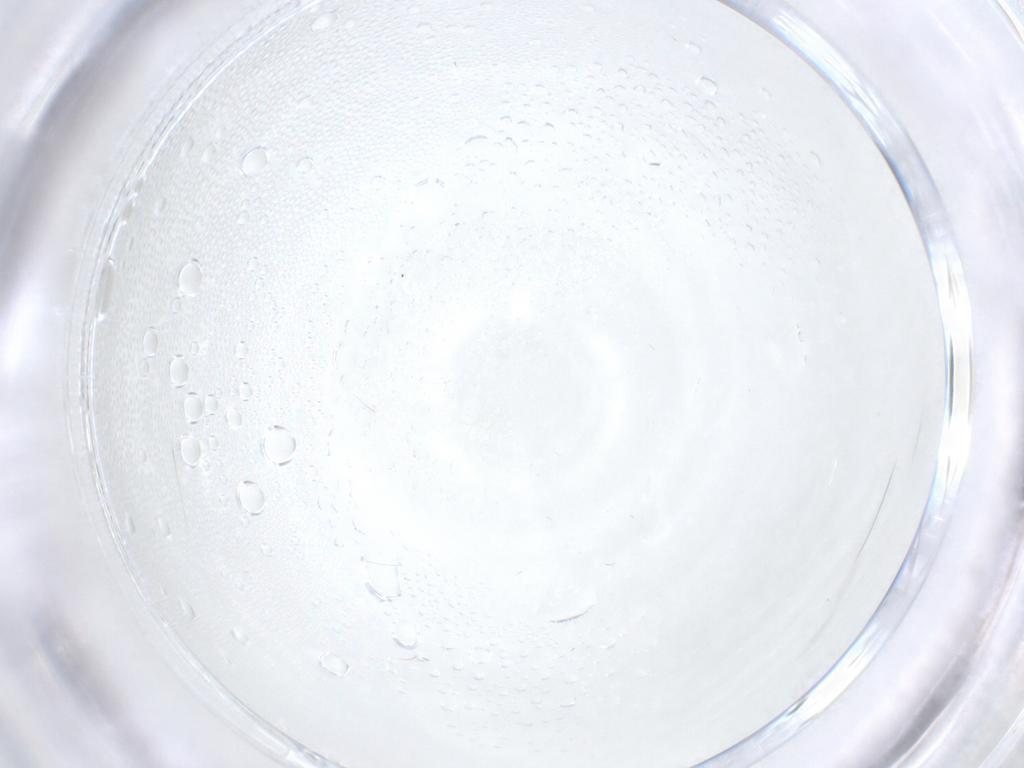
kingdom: Animalia
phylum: Arthropoda
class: Insecta
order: Diptera
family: Cecidomyiidae
